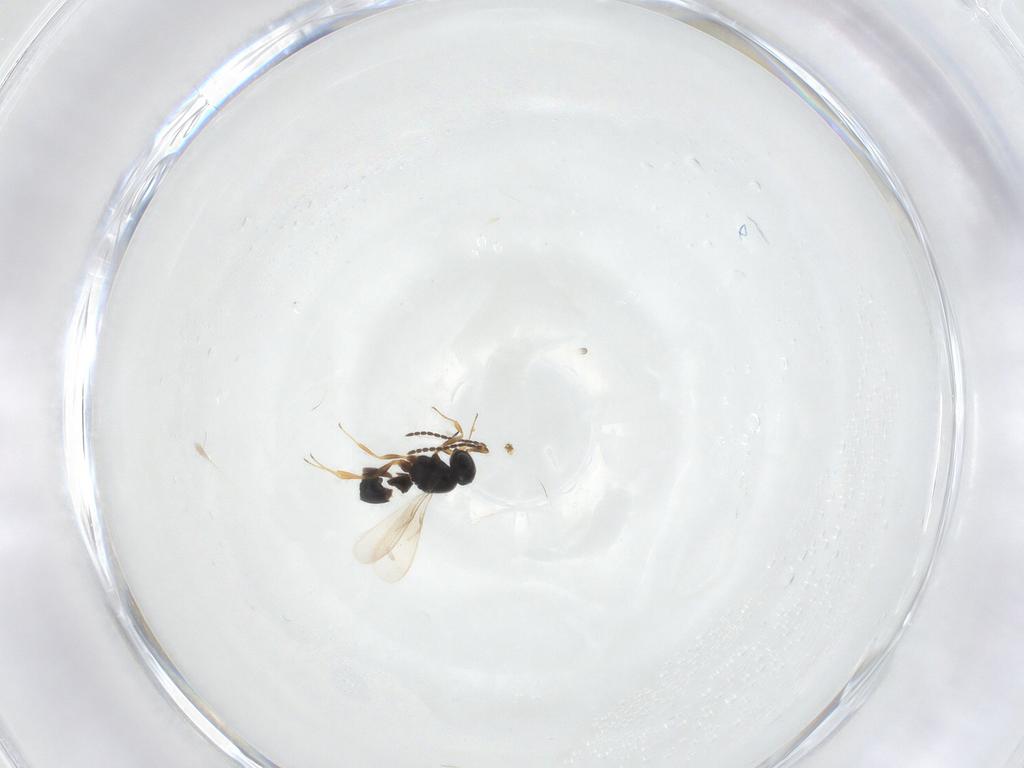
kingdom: Animalia
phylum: Arthropoda
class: Insecta
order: Hymenoptera
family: Scelionidae
